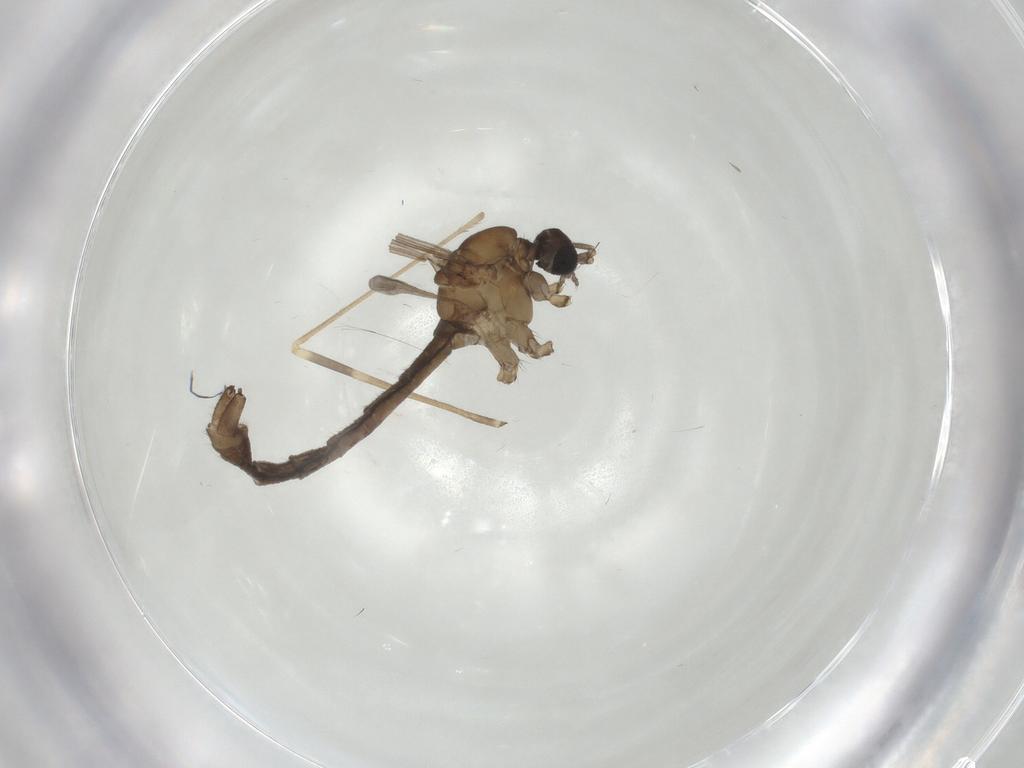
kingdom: Animalia
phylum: Arthropoda
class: Insecta
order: Diptera
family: Limoniidae
